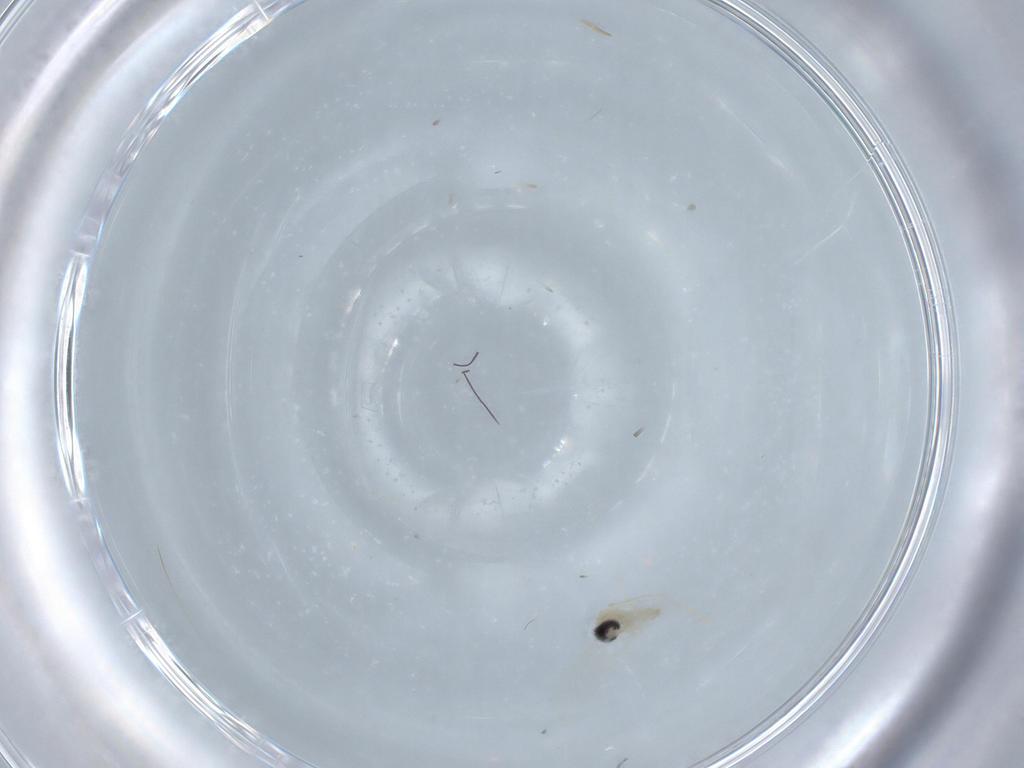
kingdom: Animalia
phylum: Arthropoda
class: Insecta
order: Diptera
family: Cecidomyiidae
